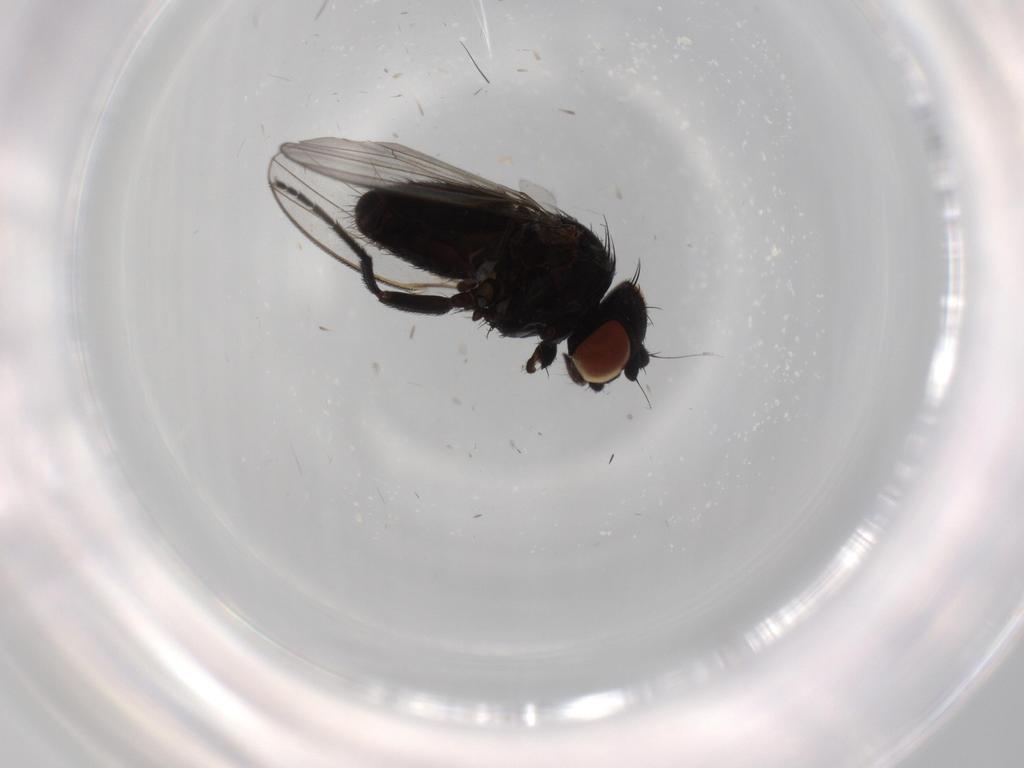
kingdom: Animalia
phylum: Arthropoda
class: Insecta
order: Diptera
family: Milichiidae
